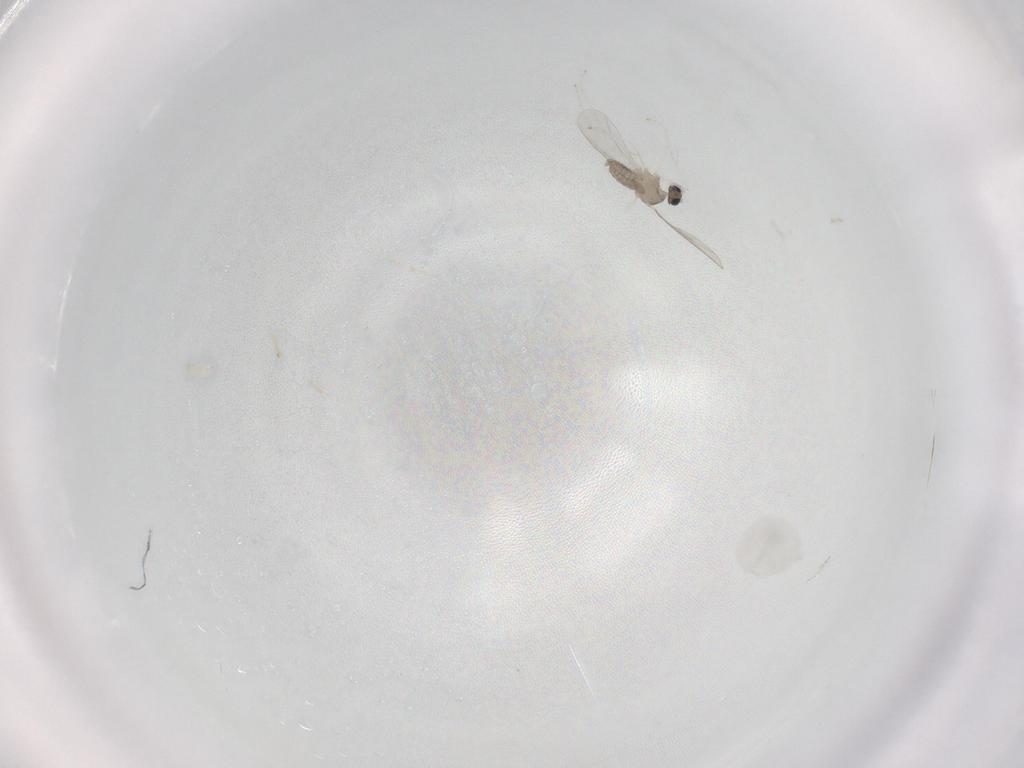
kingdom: Animalia
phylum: Arthropoda
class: Insecta
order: Diptera
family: Cecidomyiidae
